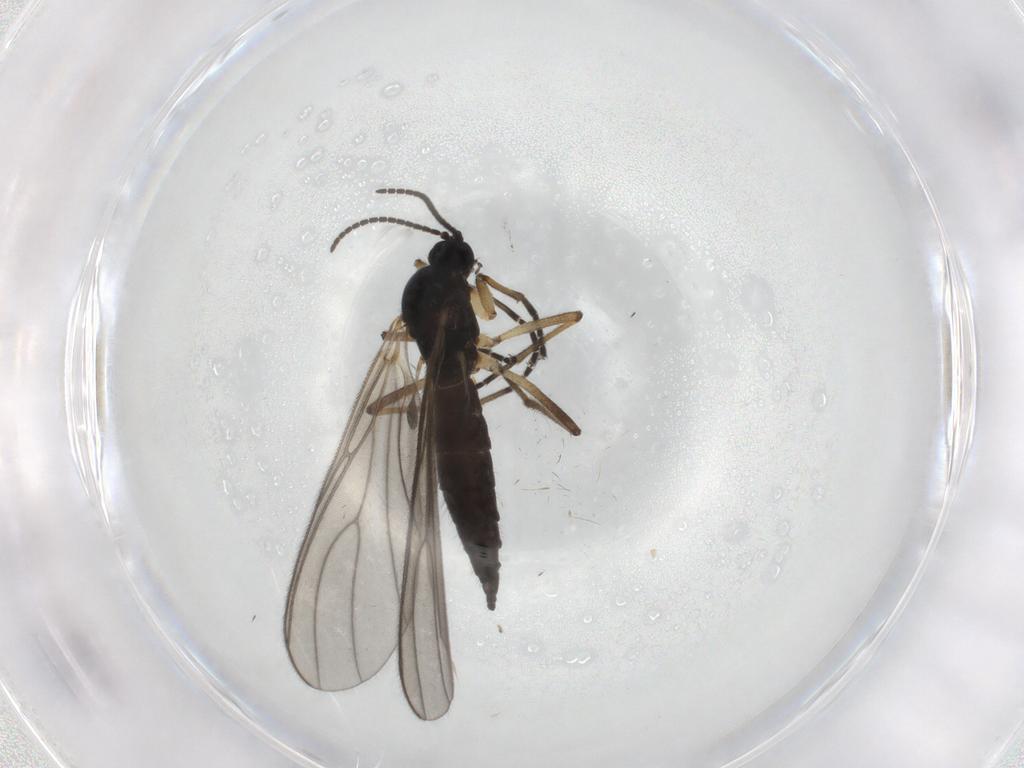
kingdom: Animalia
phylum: Arthropoda
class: Insecta
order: Diptera
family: Sciaridae
